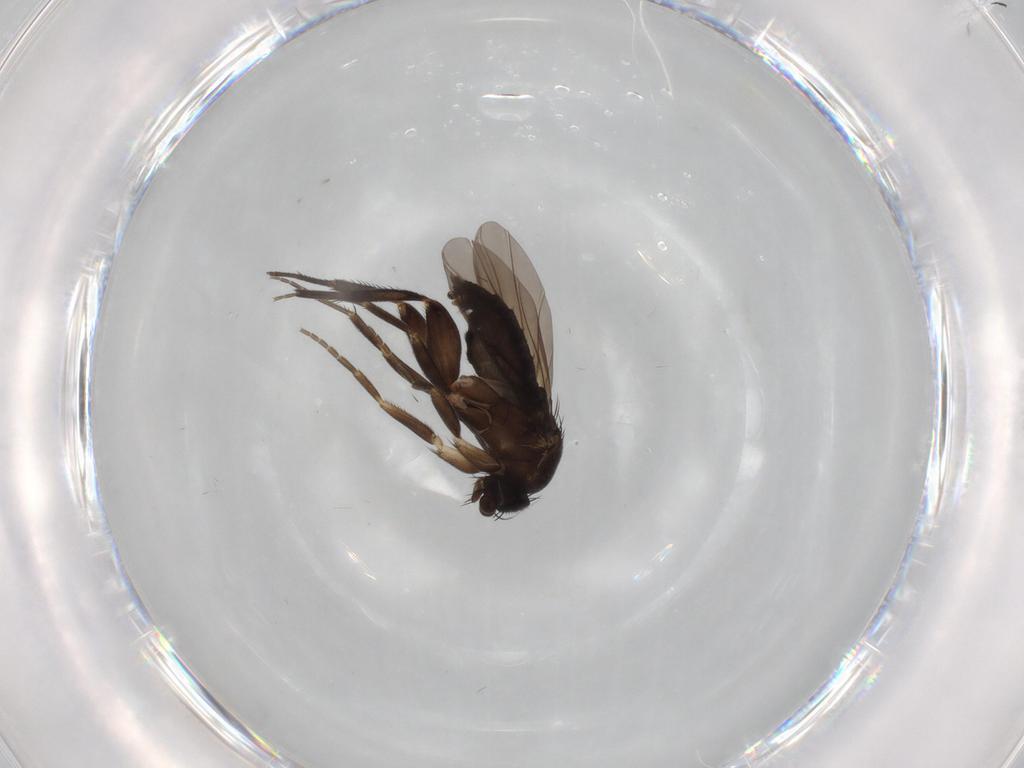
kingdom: Animalia
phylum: Arthropoda
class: Insecta
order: Diptera
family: Phoridae
